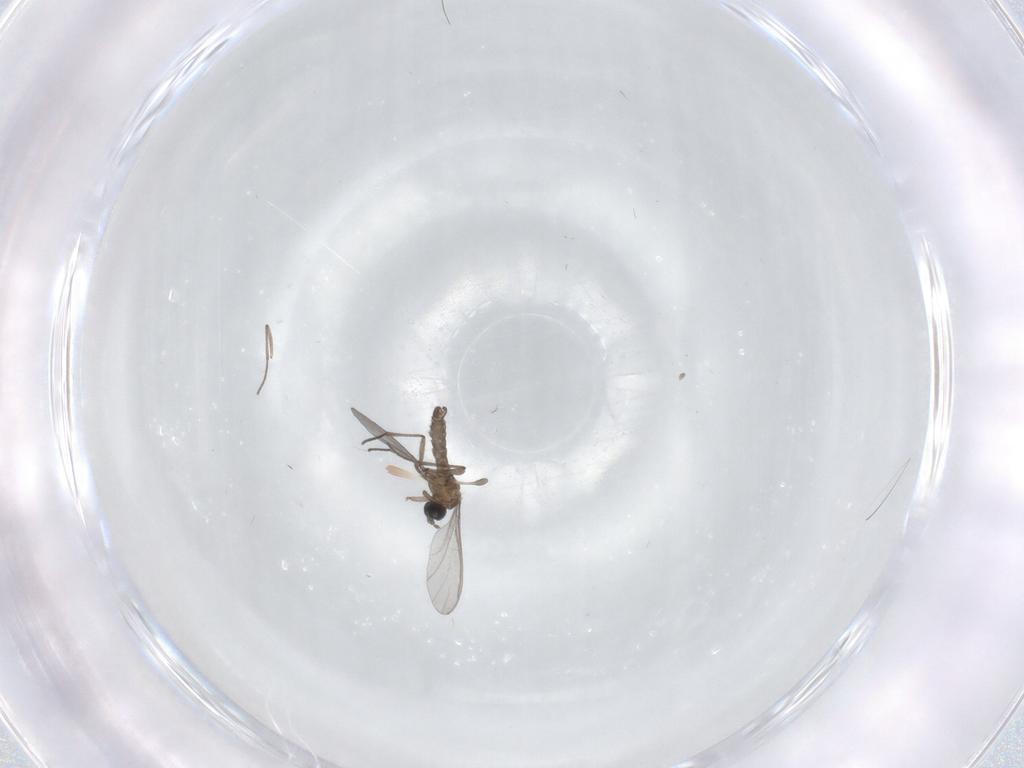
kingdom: Animalia
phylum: Arthropoda
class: Insecta
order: Diptera
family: Sciaridae
